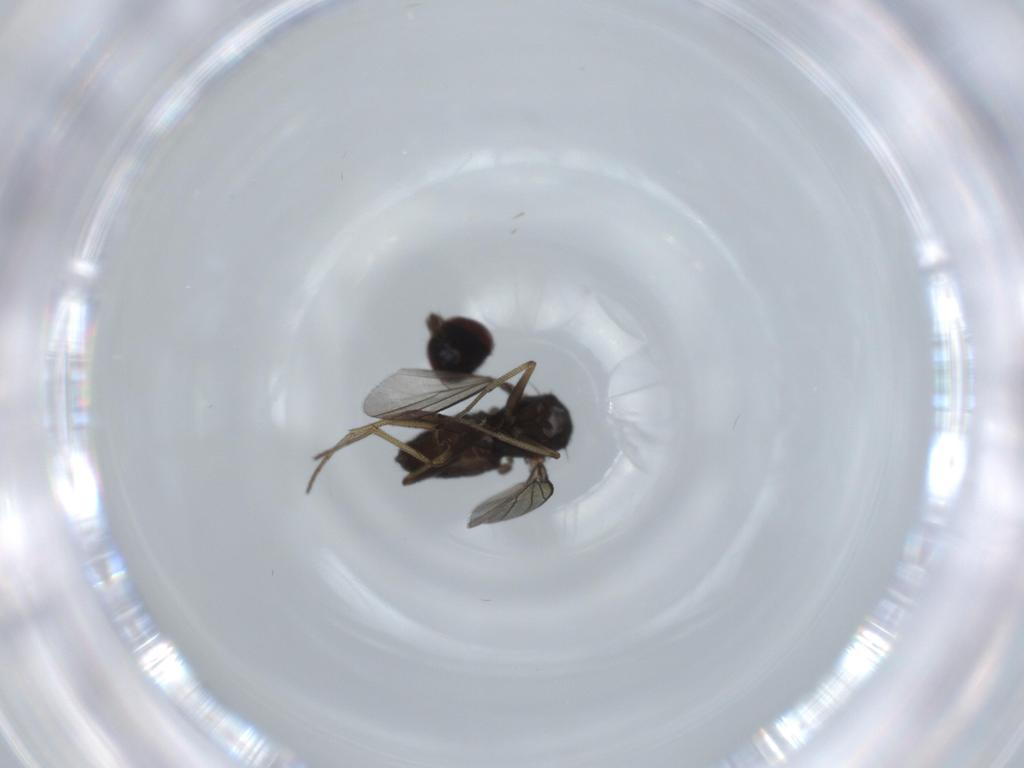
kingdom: Animalia
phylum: Arthropoda
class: Insecta
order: Diptera
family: Dolichopodidae
